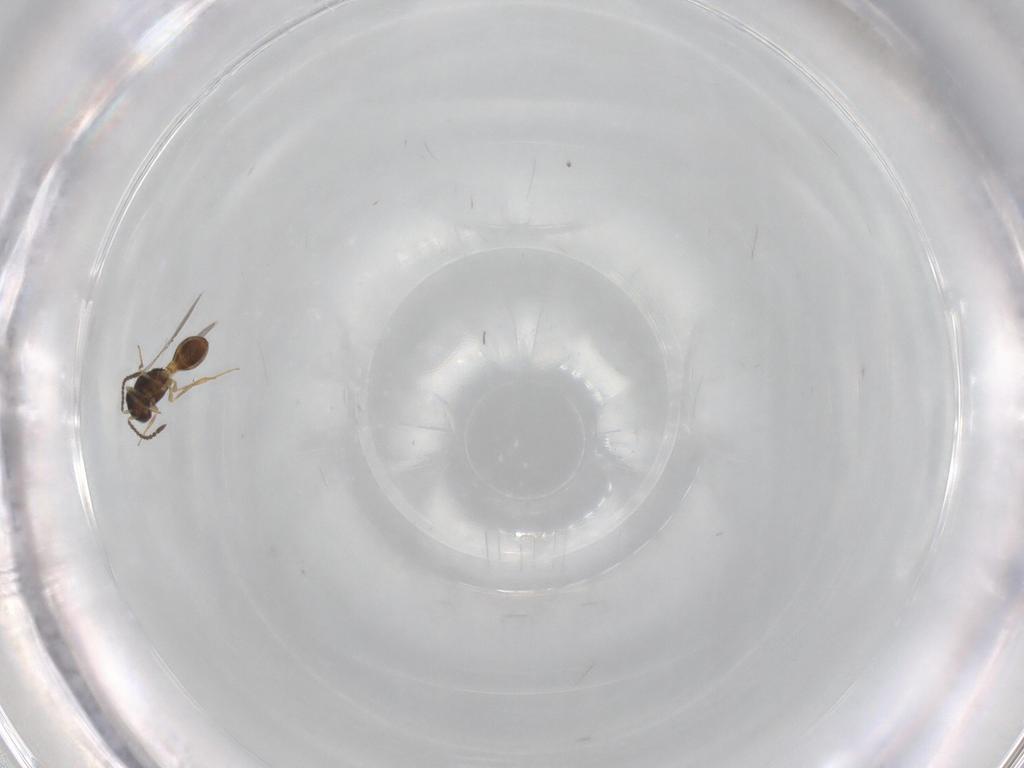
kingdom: Animalia
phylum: Arthropoda
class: Insecta
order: Hymenoptera
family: Scelionidae
